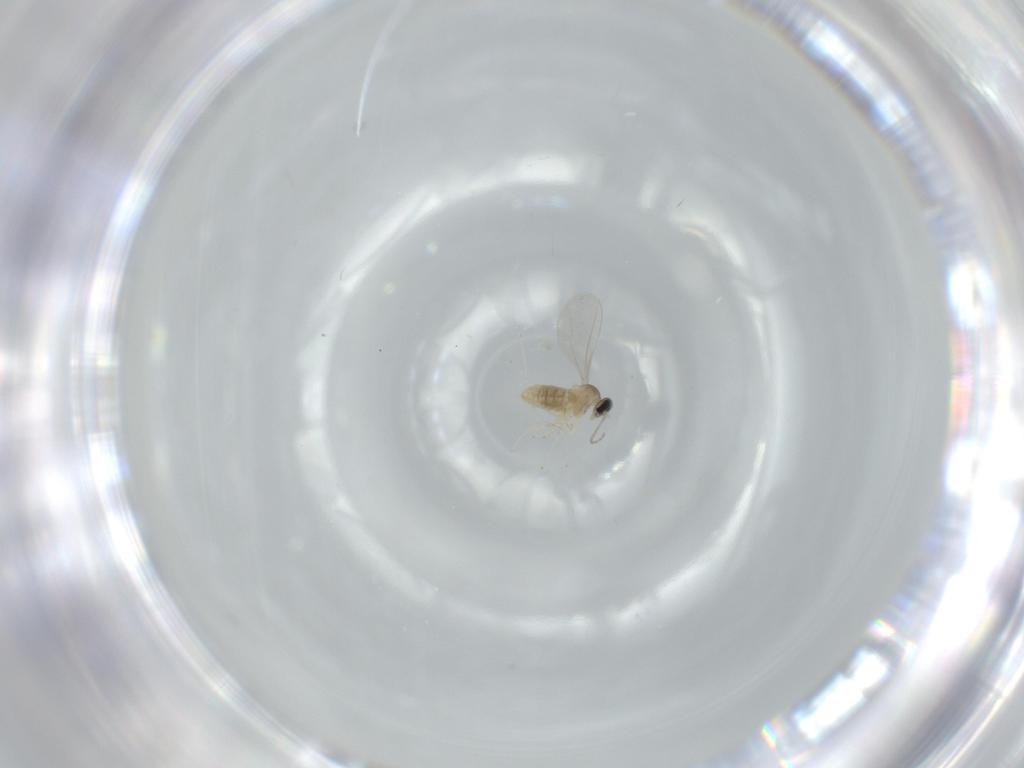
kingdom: Animalia
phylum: Arthropoda
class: Insecta
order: Diptera
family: Cecidomyiidae
